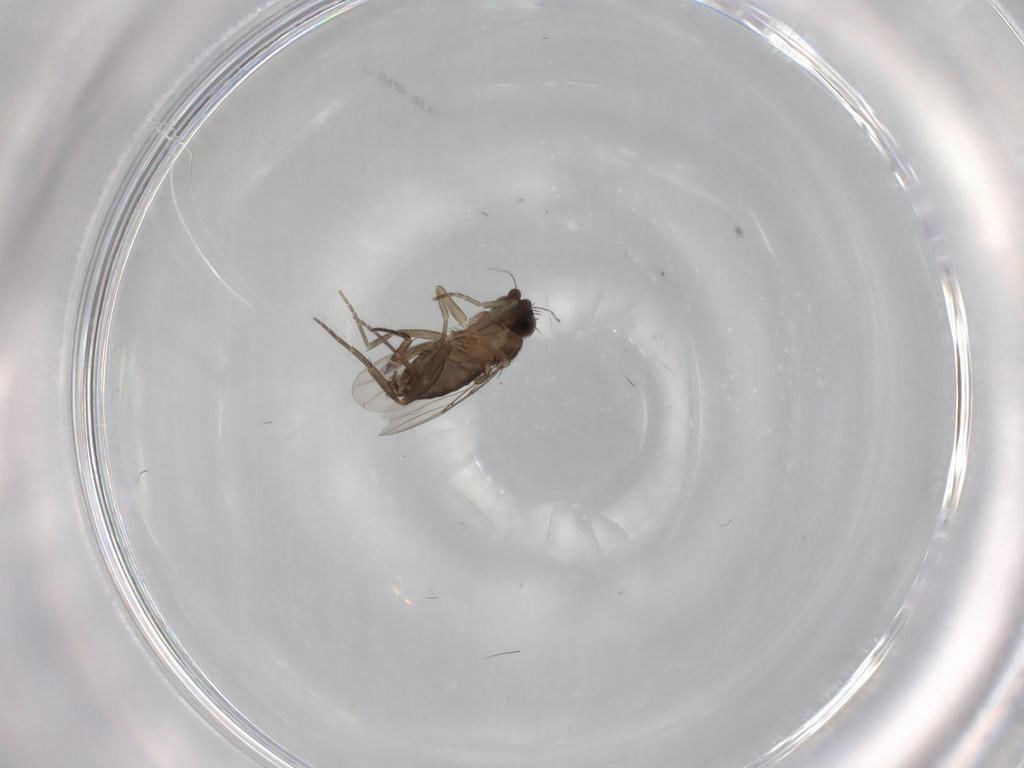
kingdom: Animalia
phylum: Arthropoda
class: Insecta
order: Diptera
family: Phoridae
